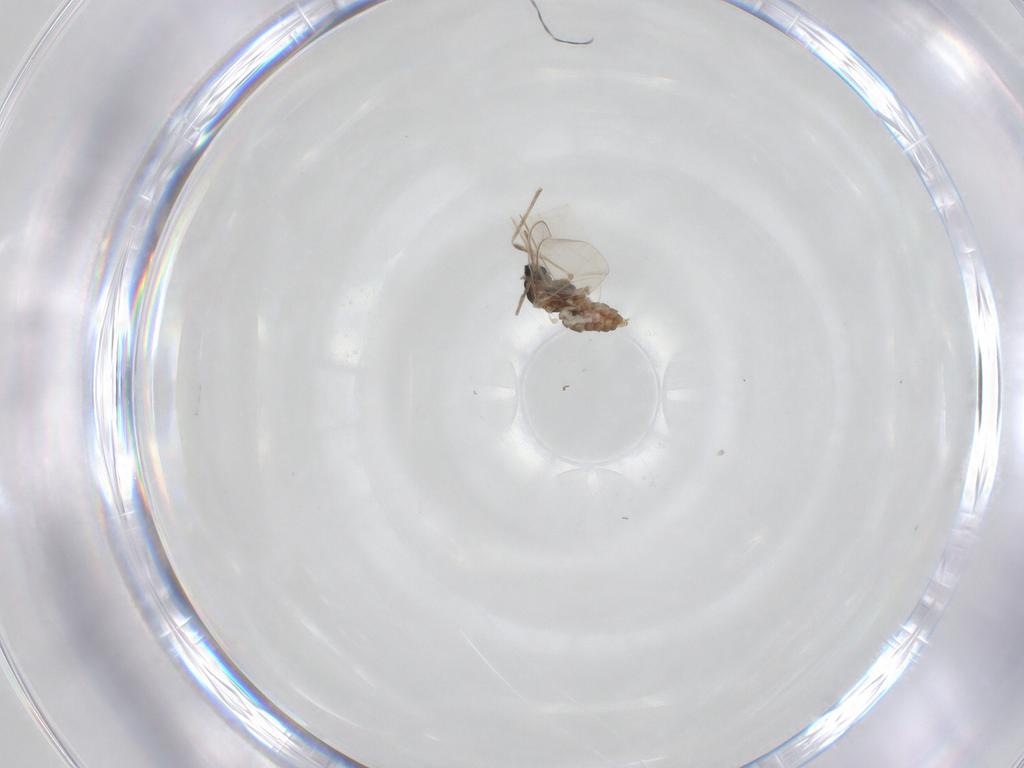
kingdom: Animalia
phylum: Arthropoda
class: Insecta
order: Diptera
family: Cecidomyiidae
